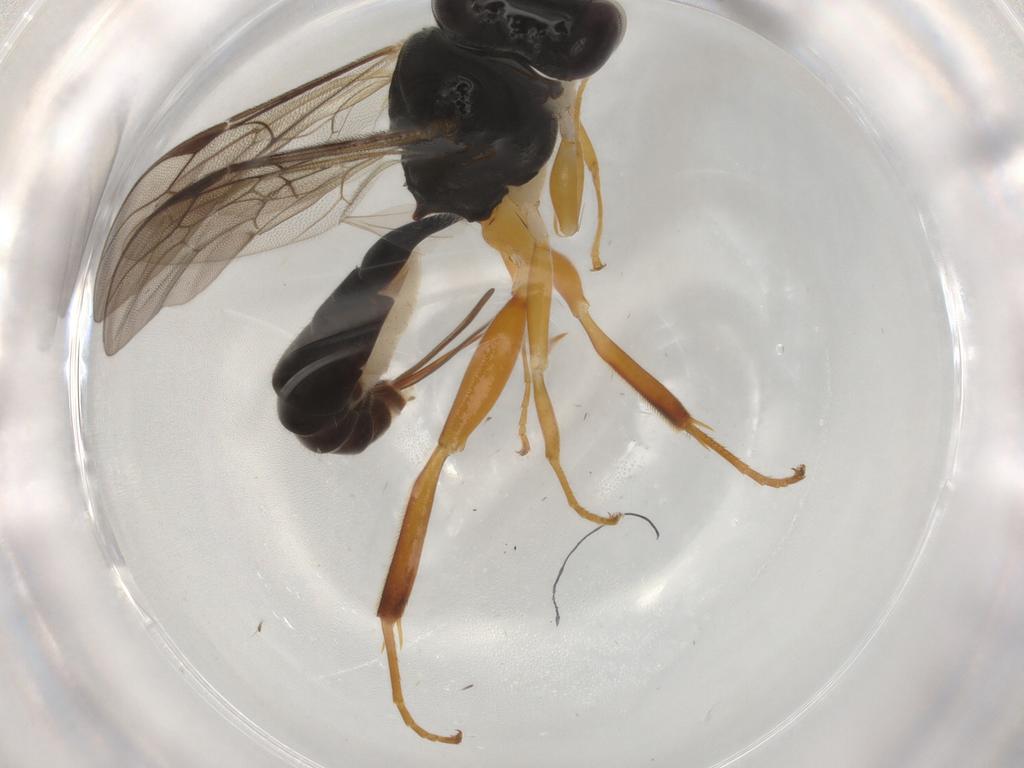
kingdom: Animalia
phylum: Arthropoda
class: Insecta
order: Hymenoptera
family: Ichneumonidae
